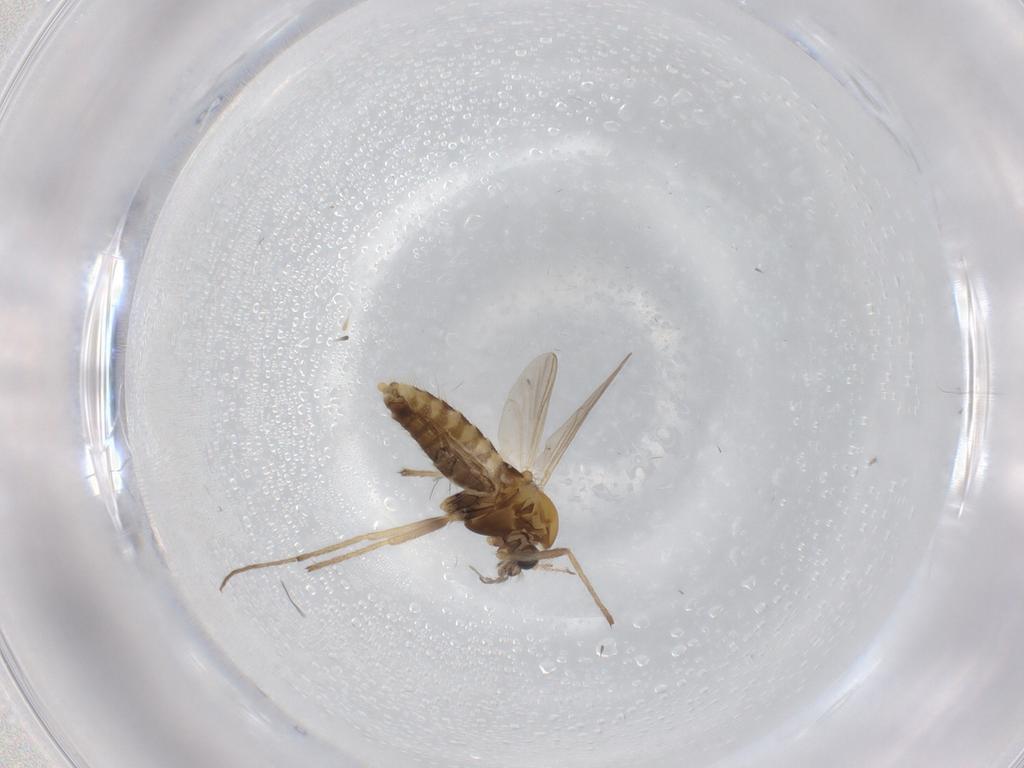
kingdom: Animalia
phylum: Arthropoda
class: Insecta
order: Diptera
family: Chironomidae
